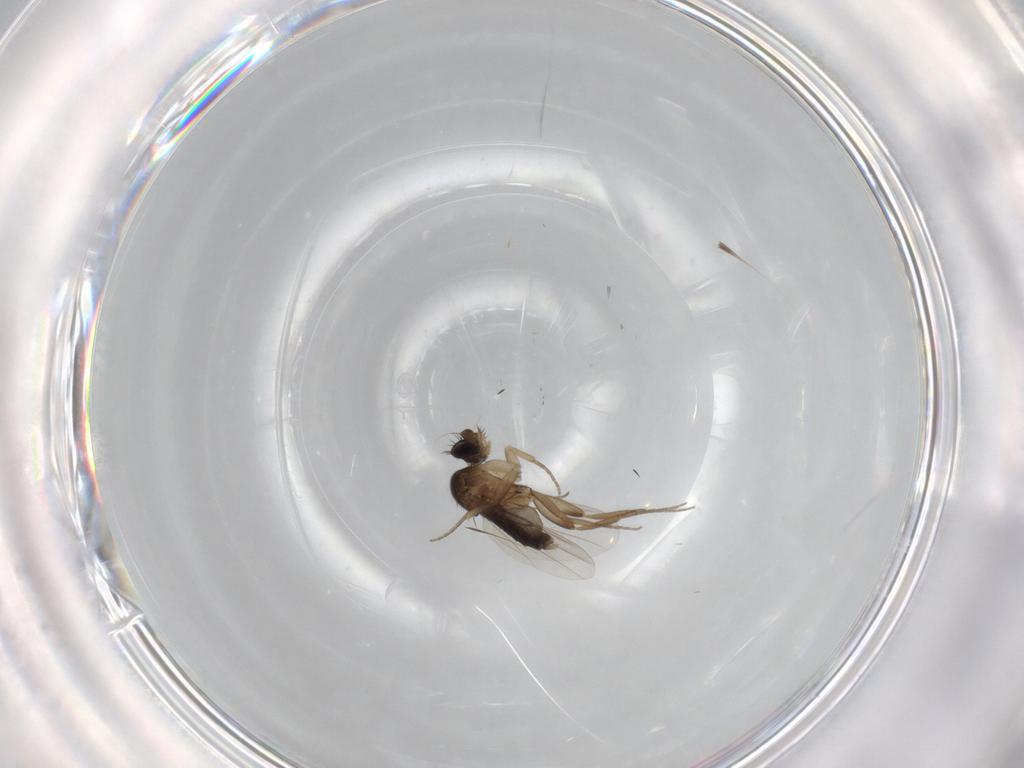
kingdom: Animalia
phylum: Arthropoda
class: Insecta
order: Diptera
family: Phoridae
